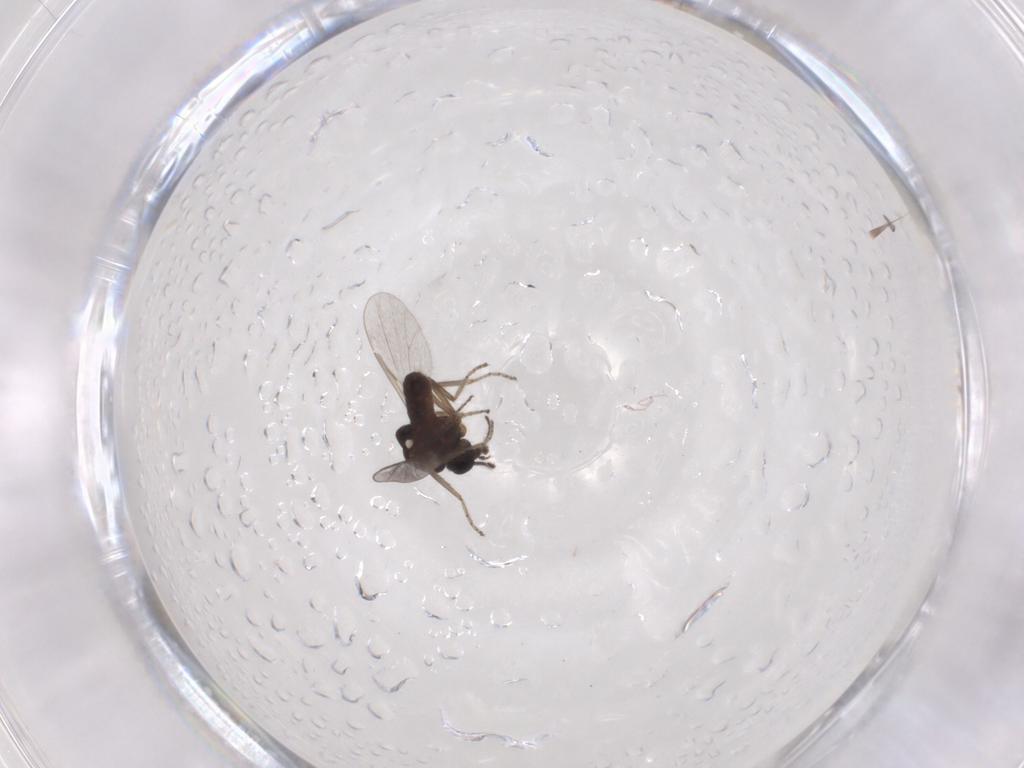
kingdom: Animalia
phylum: Arthropoda
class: Insecta
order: Diptera
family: Ceratopogonidae
